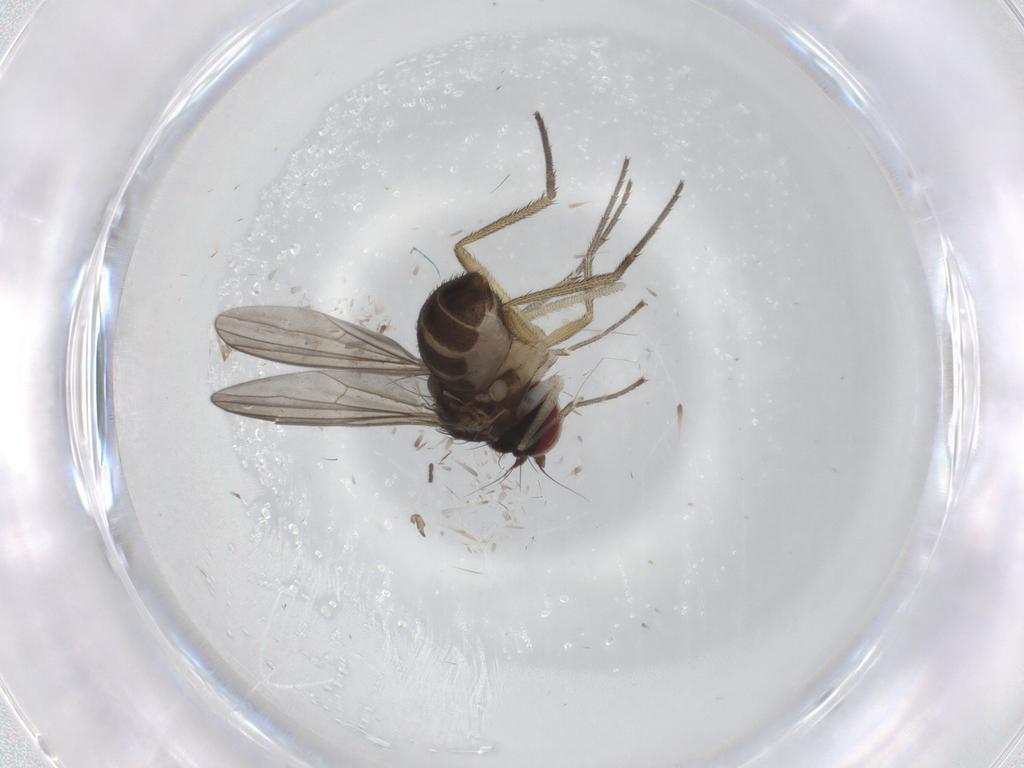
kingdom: Animalia
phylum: Arthropoda
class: Insecta
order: Diptera
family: Dolichopodidae
